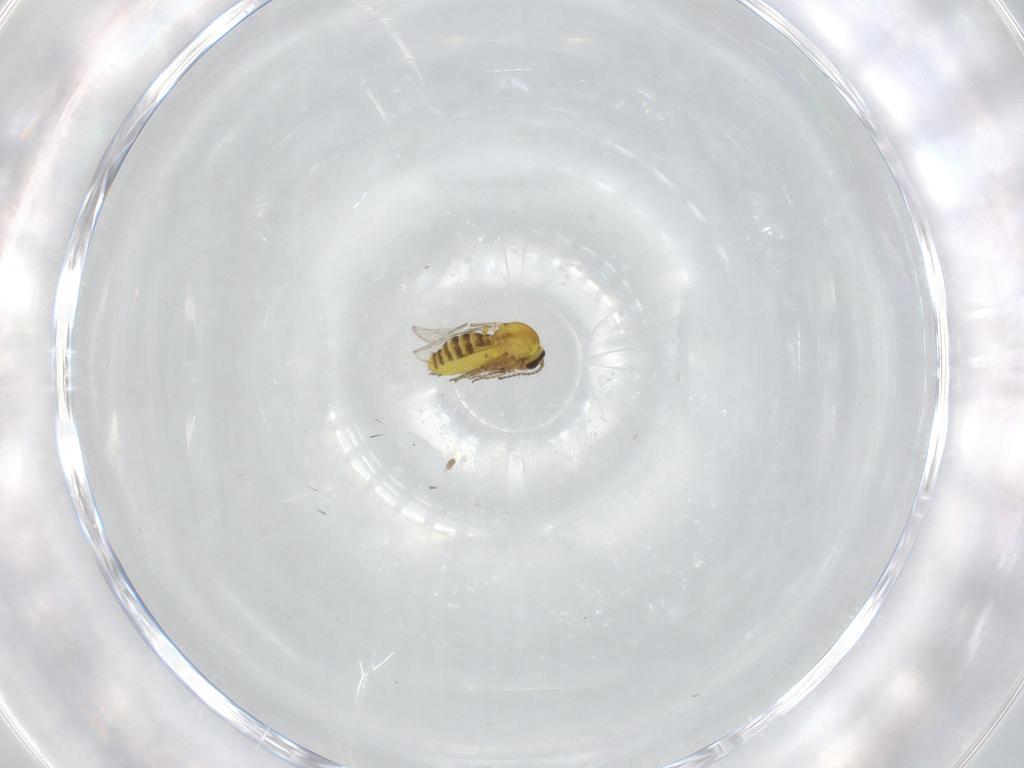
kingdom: Animalia
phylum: Arthropoda
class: Insecta
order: Diptera
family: Ceratopogonidae
